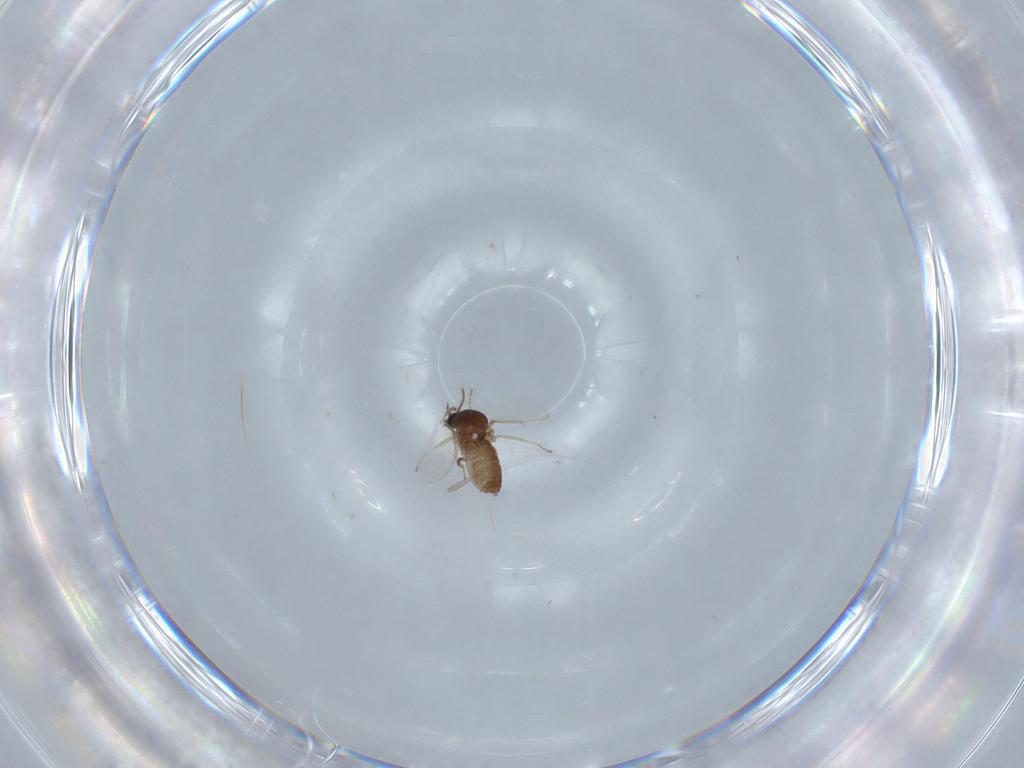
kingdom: Animalia
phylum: Arthropoda
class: Insecta
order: Diptera
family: Ceratopogonidae
